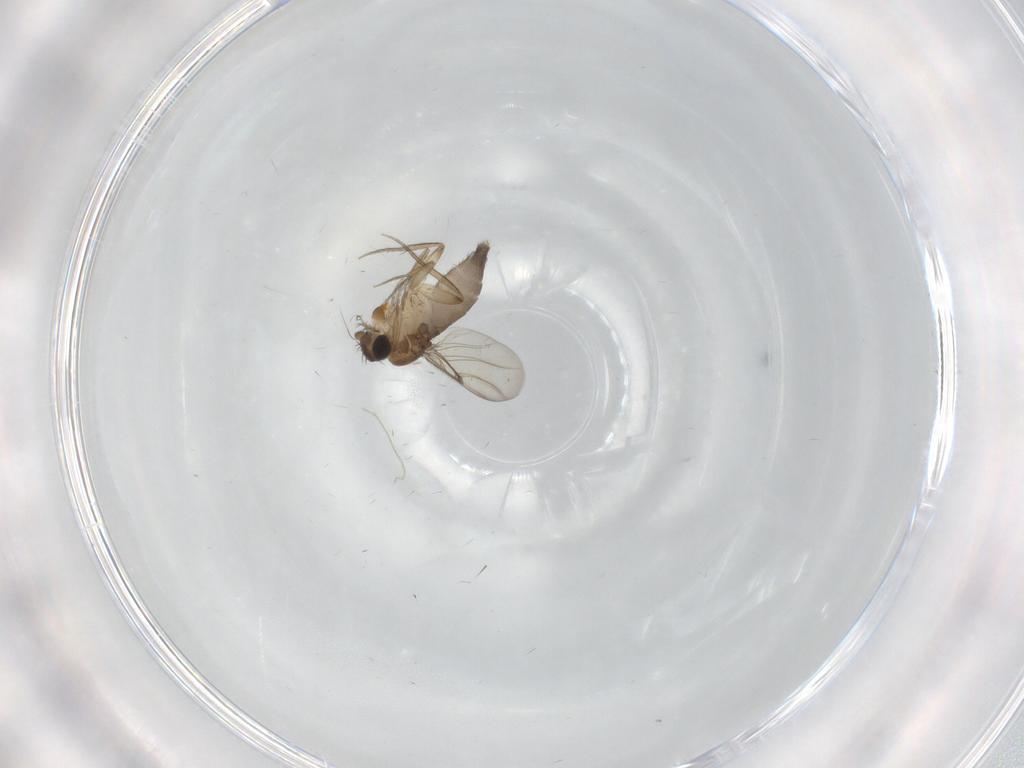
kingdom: Animalia
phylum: Arthropoda
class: Insecta
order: Diptera
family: Phoridae
